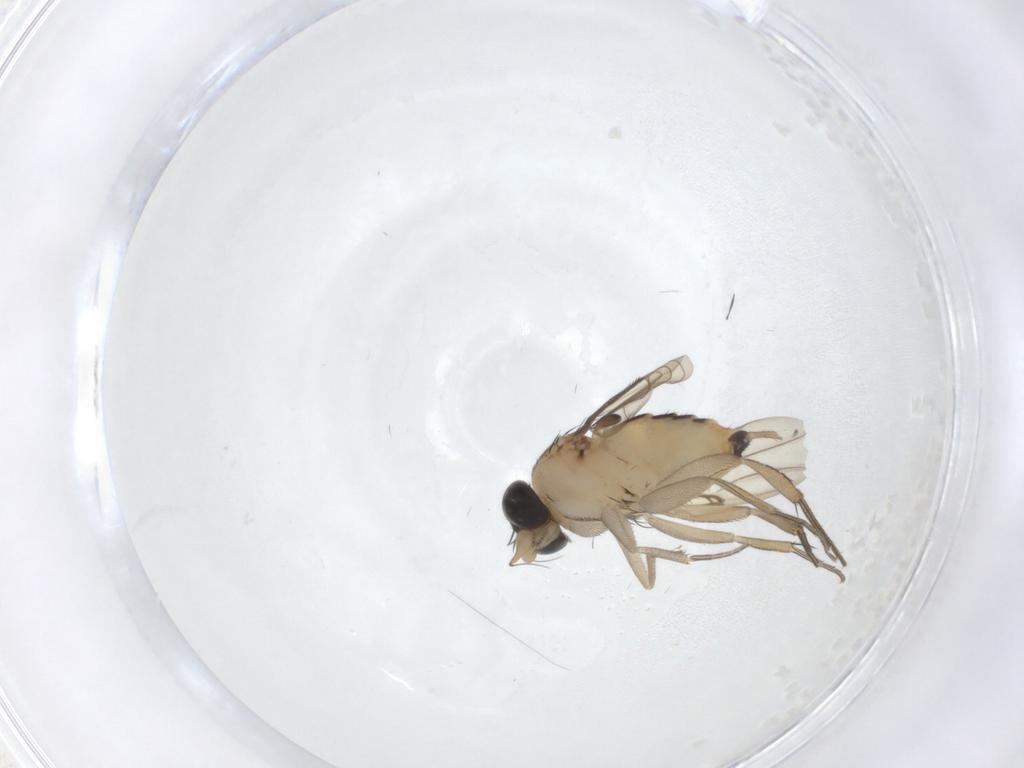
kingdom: Animalia
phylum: Arthropoda
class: Insecta
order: Diptera
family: Phoridae
